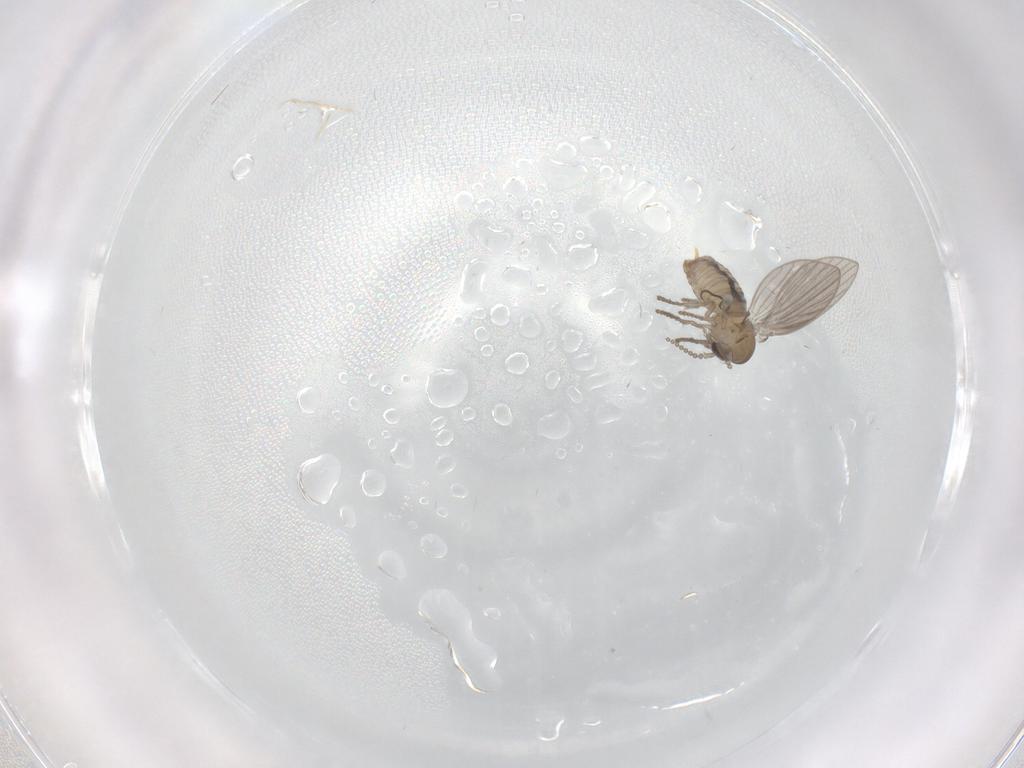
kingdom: Animalia
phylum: Arthropoda
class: Insecta
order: Diptera
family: Psychodidae
